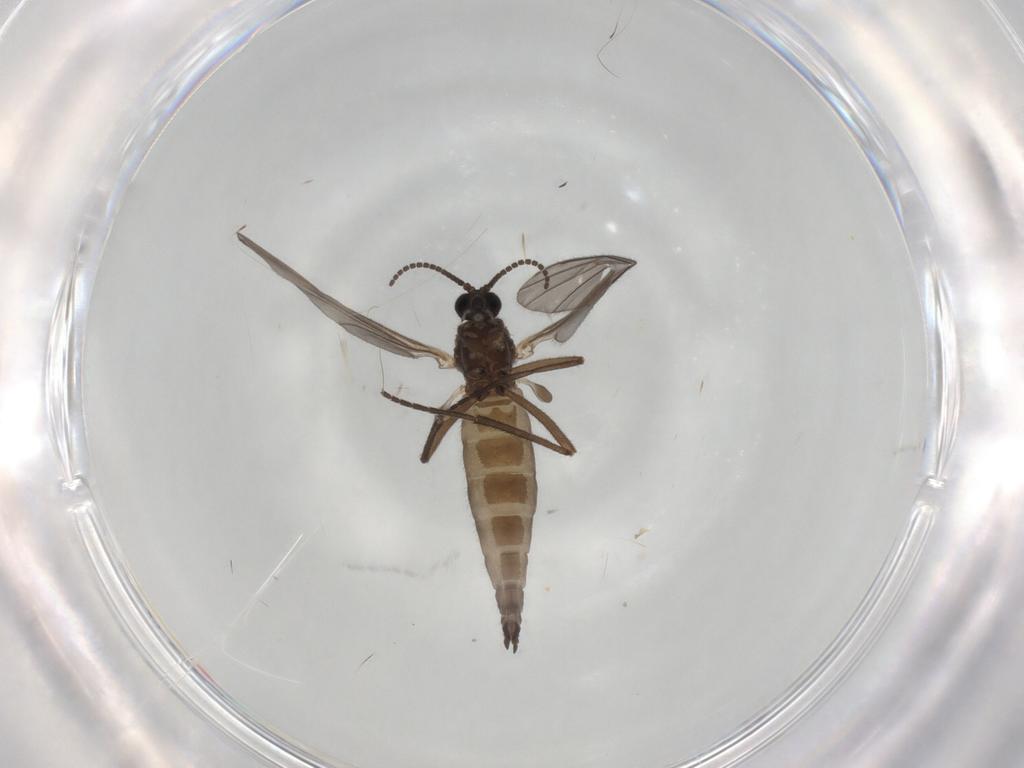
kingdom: Animalia
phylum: Arthropoda
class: Insecta
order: Diptera
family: Sciaridae
